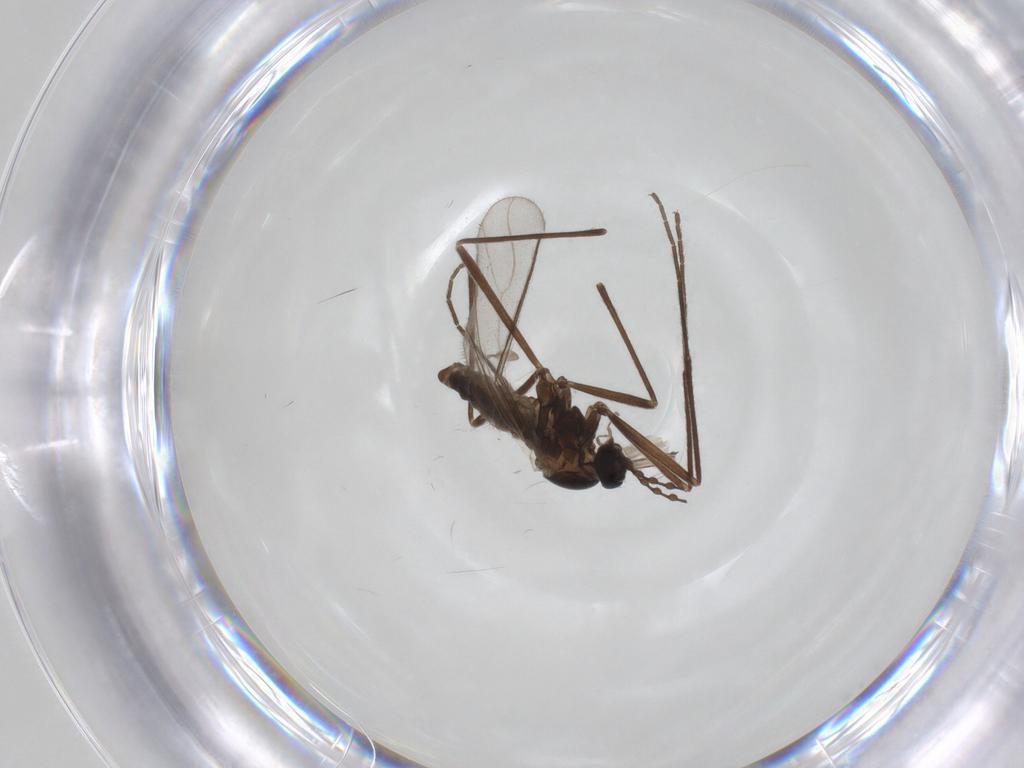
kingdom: Animalia
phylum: Arthropoda
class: Insecta
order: Diptera
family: Cecidomyiidae
